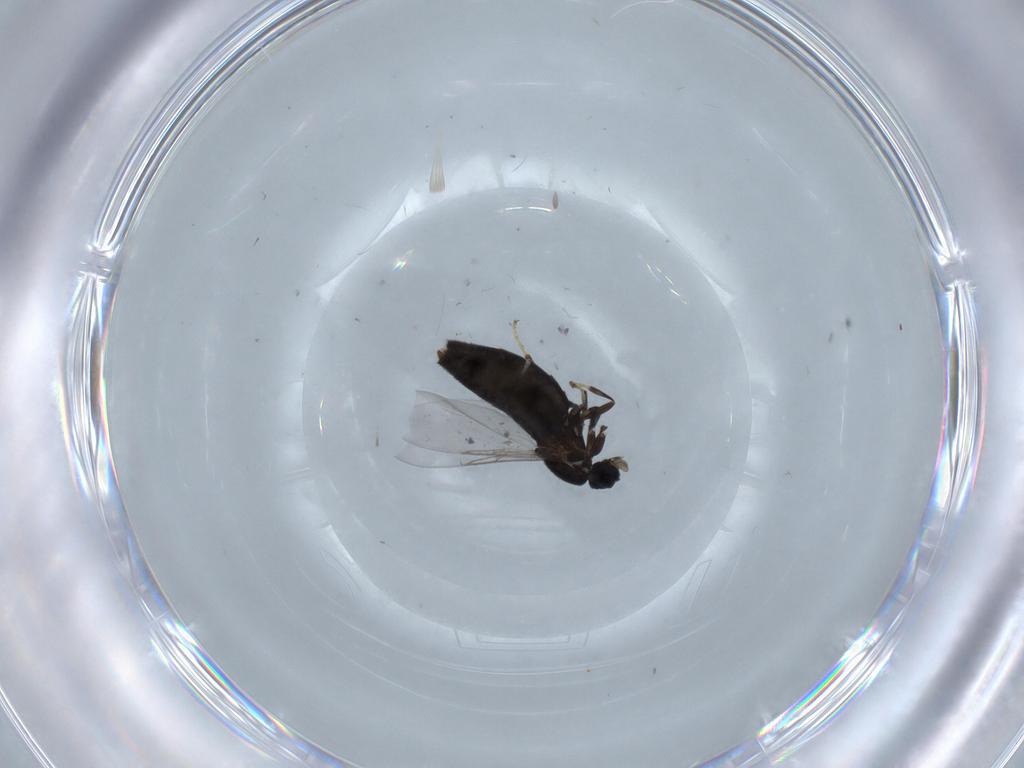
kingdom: Animalia
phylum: Arthropoda
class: Insecta
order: Diptera
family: Scatopsidae
